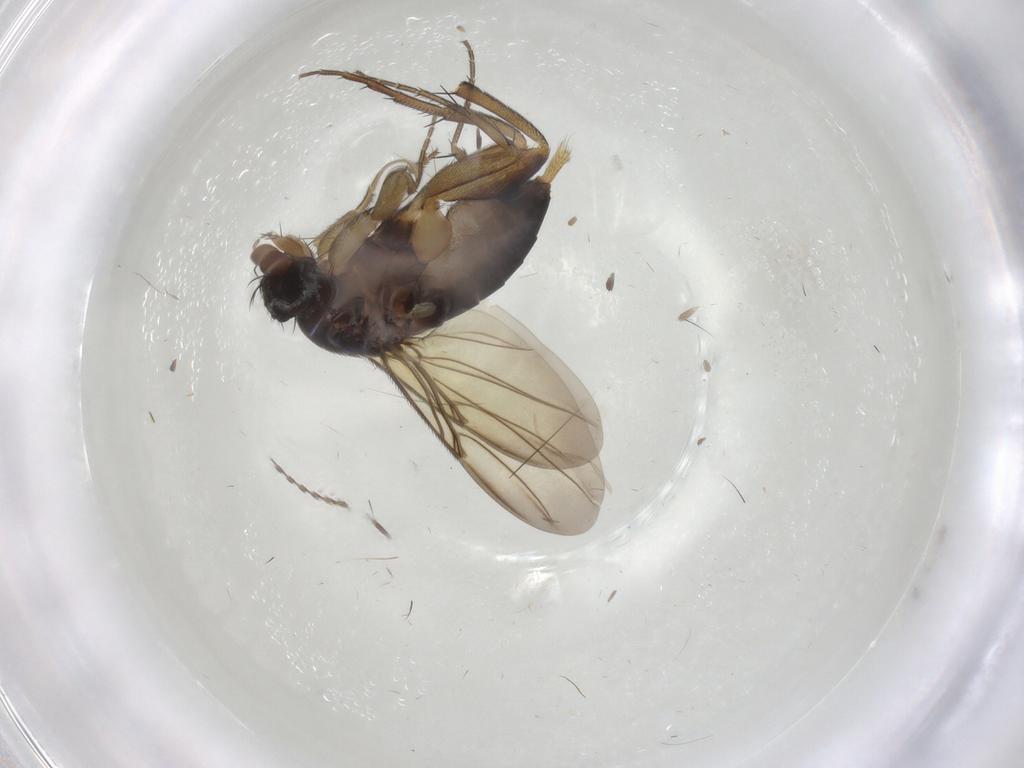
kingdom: Animalia
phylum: Arthropoda
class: Insecta
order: Diptera
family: Phoridae
